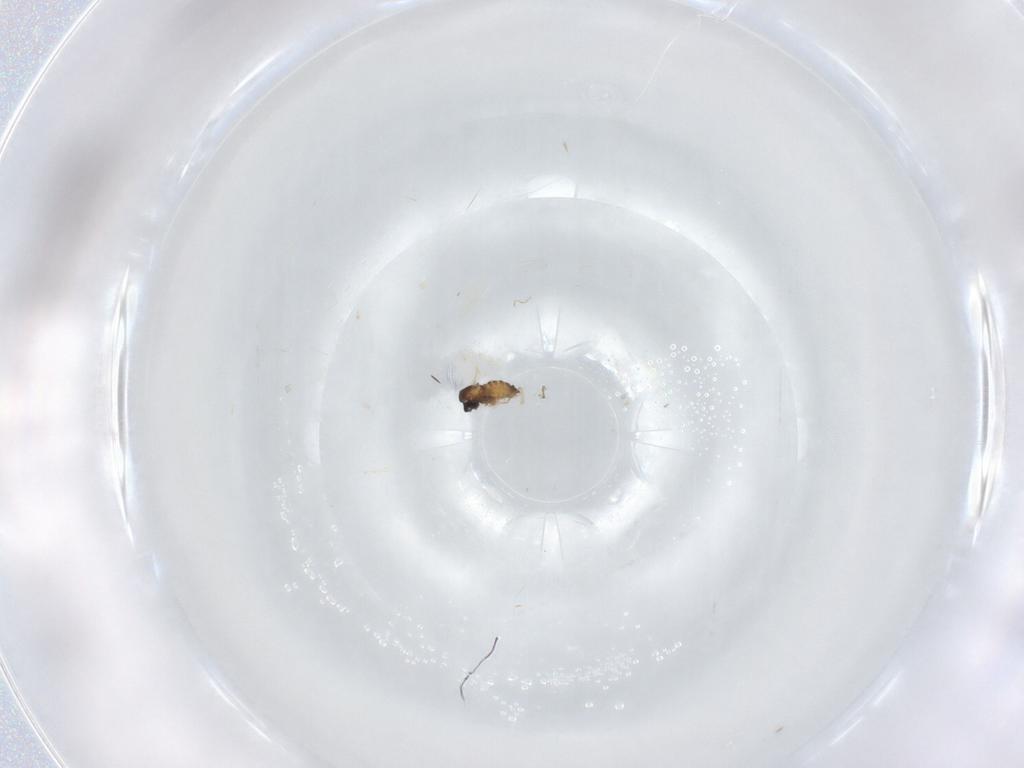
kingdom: Animalia
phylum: Arthropoda
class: Insecta
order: Diptera
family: Cecidomyiidae
